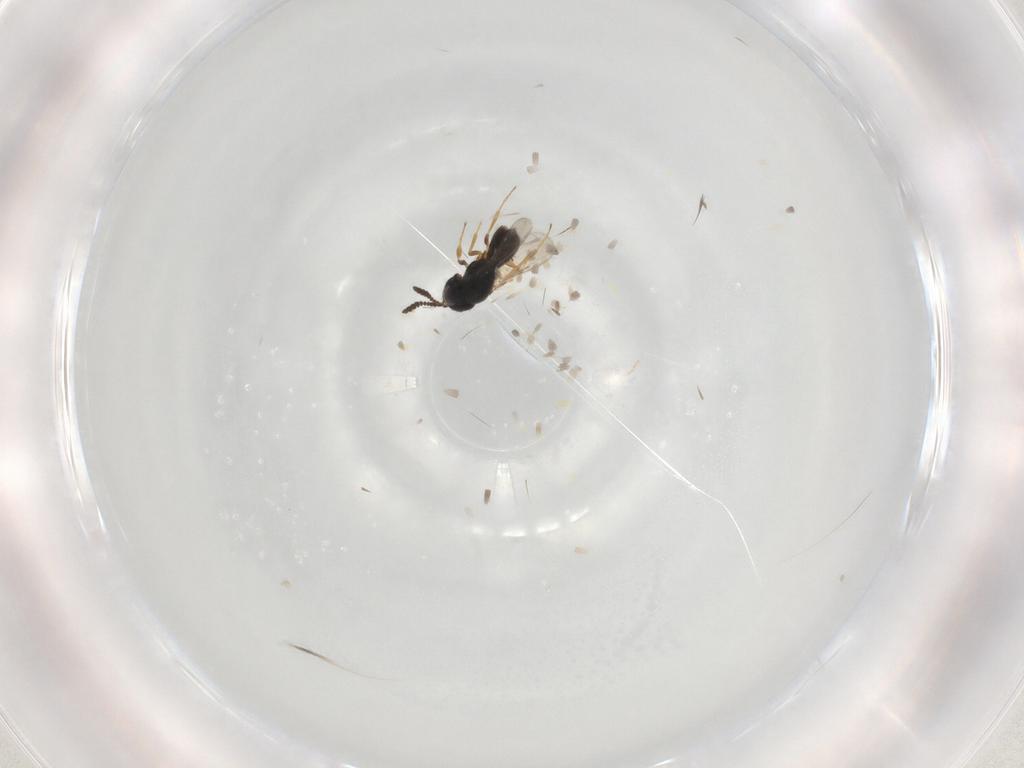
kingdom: Animalia
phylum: Arthropoda
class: Insecta
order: Hymenoptera
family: Scelionidae
